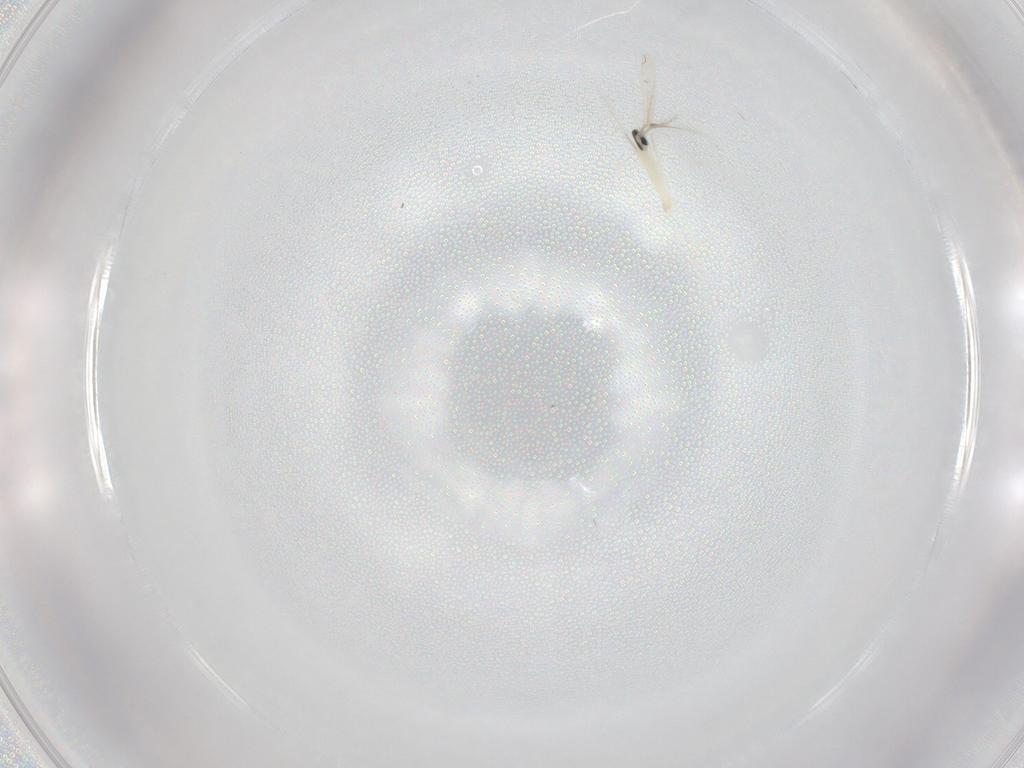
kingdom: Animalia
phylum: Arthropoda
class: Insecta
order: Diptera
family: Cecidomyiidae
